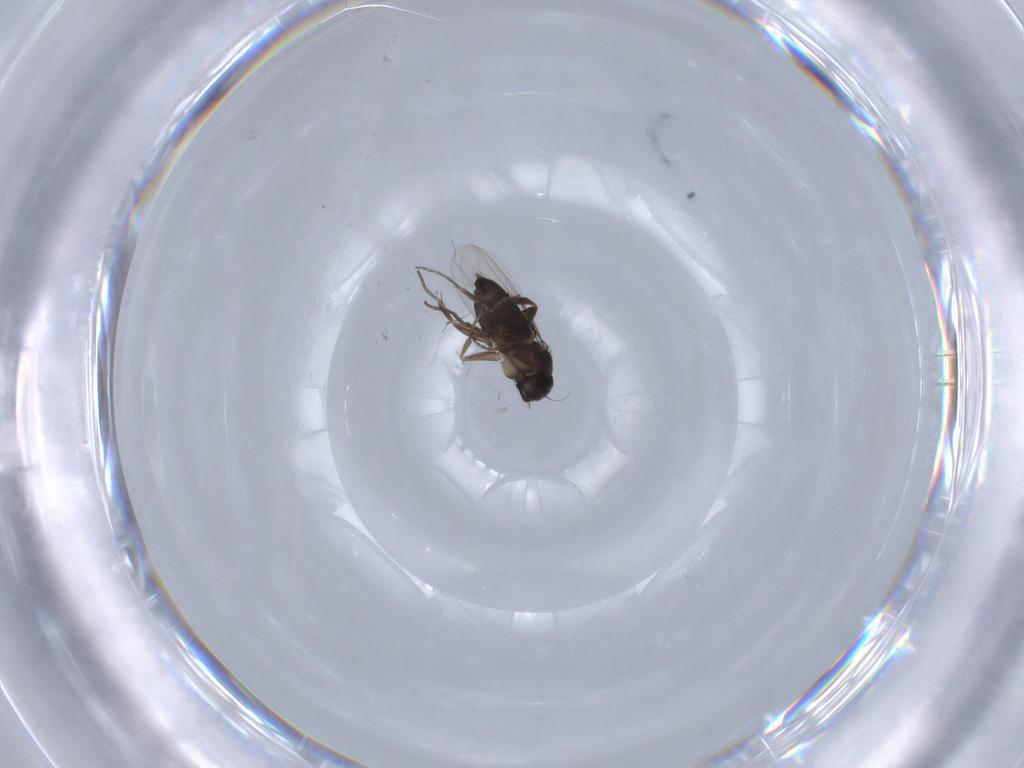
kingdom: Animalia
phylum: Arthropoda
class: Insecta
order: Diptera
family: Phoridae
